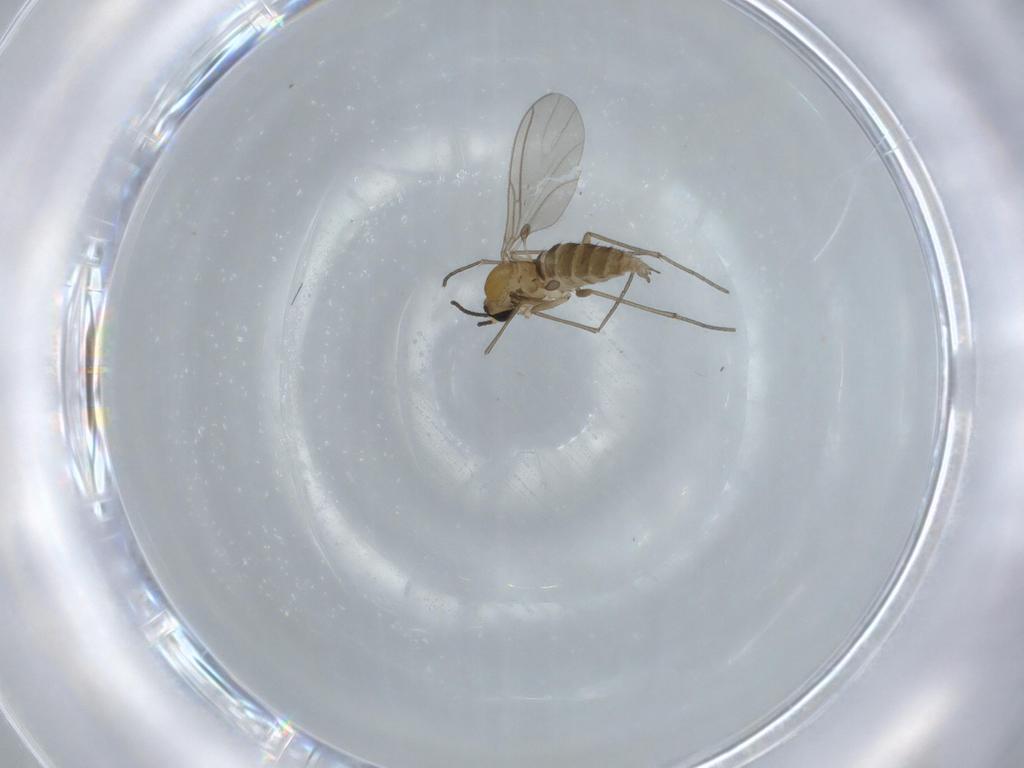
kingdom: Animalia
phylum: Arthropoda
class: Insecta
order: Diptera
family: Sciaridae
